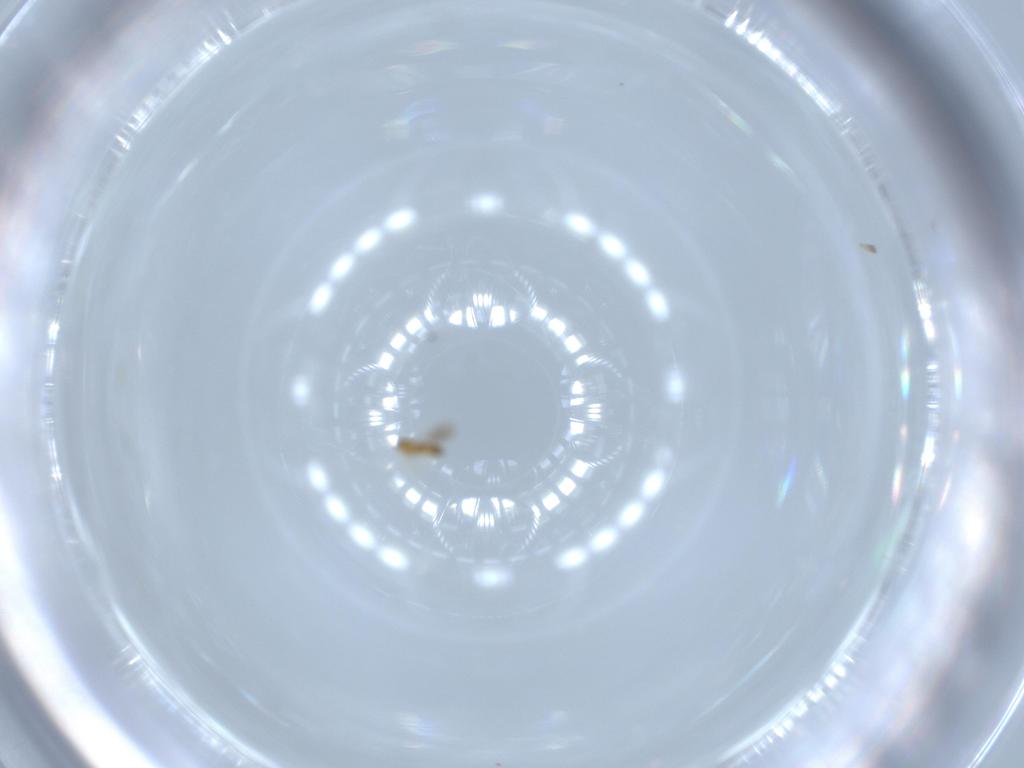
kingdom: Animalia
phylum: Arthropoda
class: Insecta
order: Hymenoptera
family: Platygastridae
